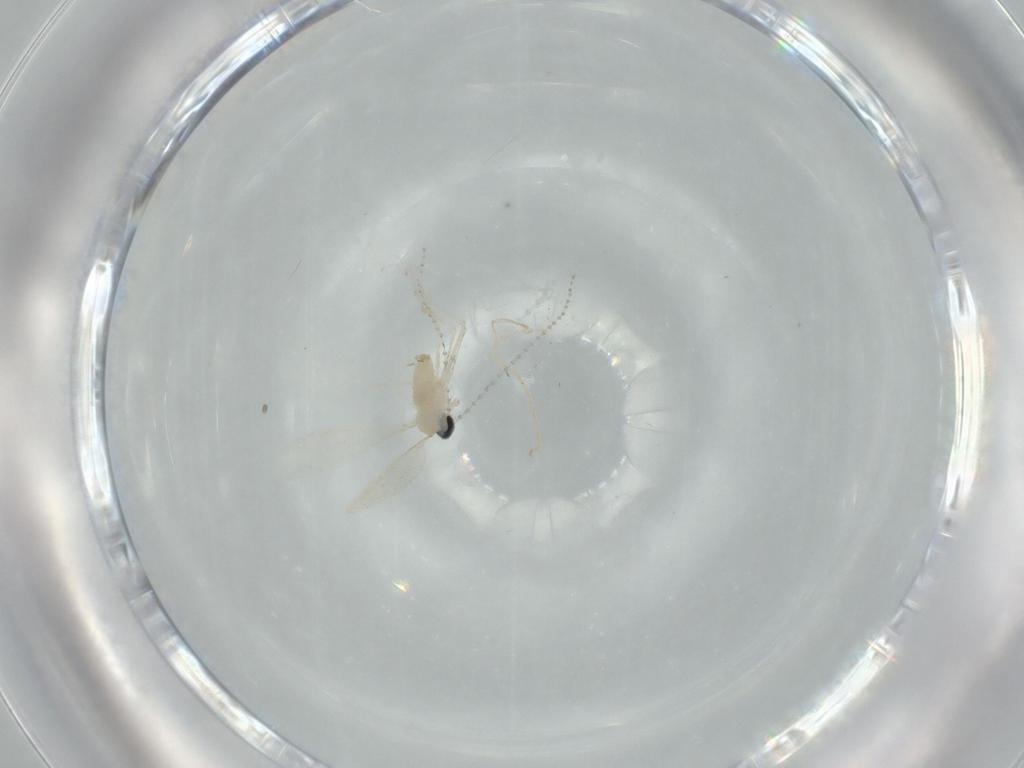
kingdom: Animalia
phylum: Arthropoda
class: Insecta
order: Diptera
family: Cecidomyiidae
